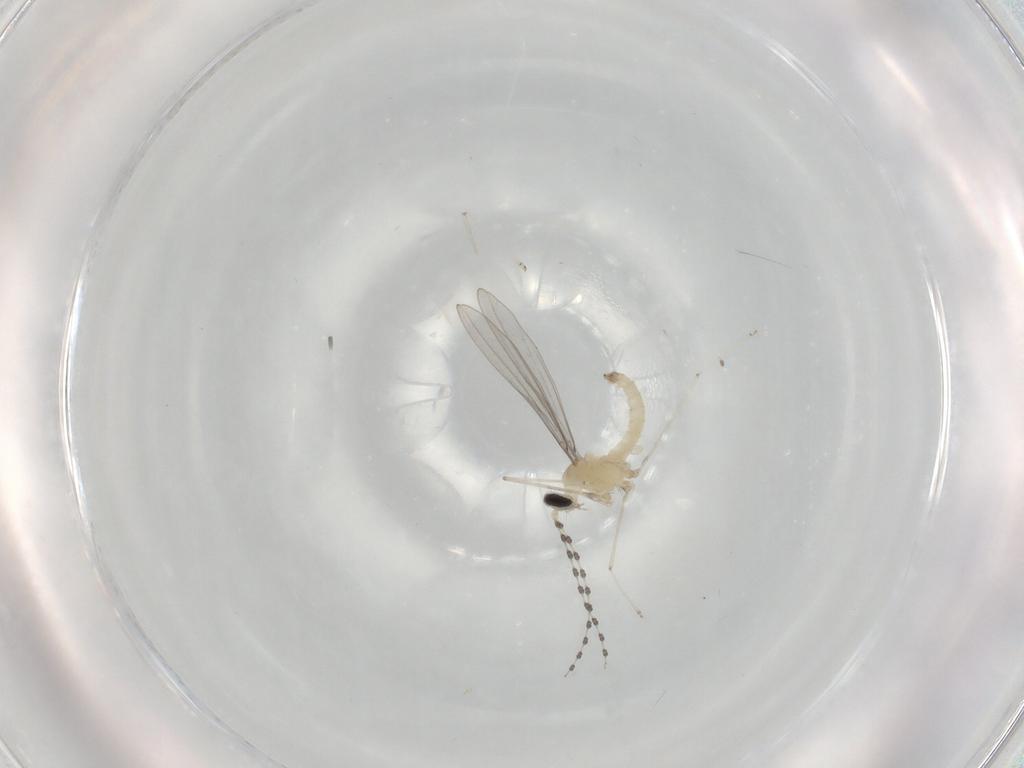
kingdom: Animalia
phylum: Arthropoda
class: Insecta
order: Diptera
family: Cecidomyiidae
